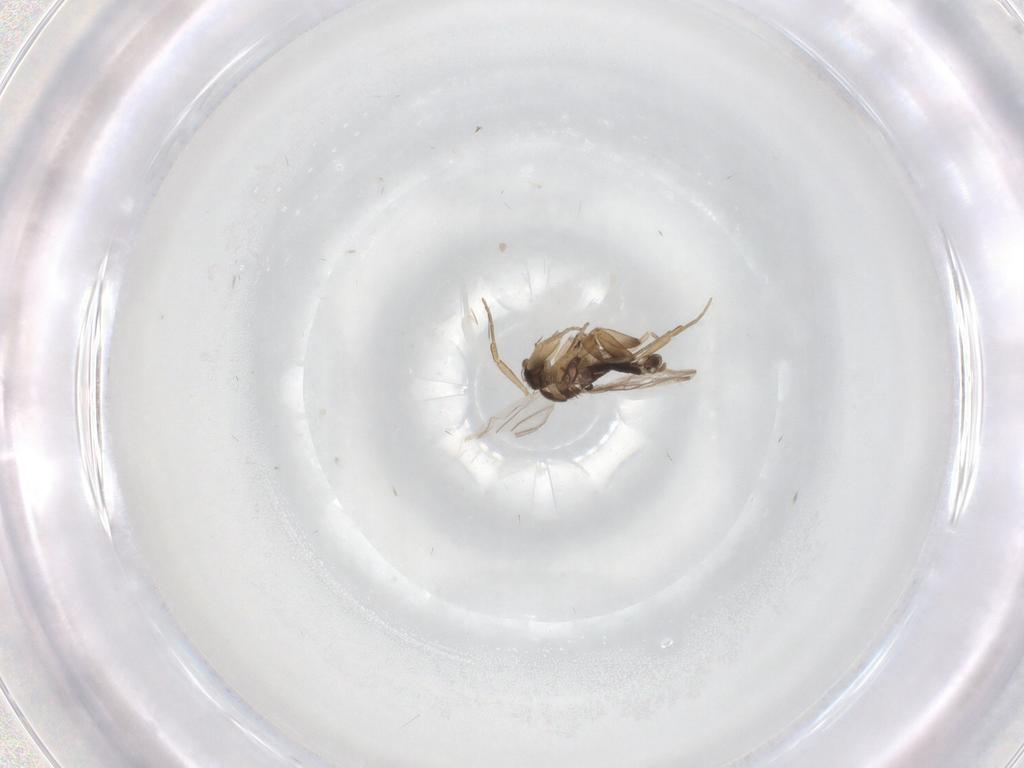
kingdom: Animalia
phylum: Arthropoda
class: Insecta
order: Diptera
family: Phoridae
